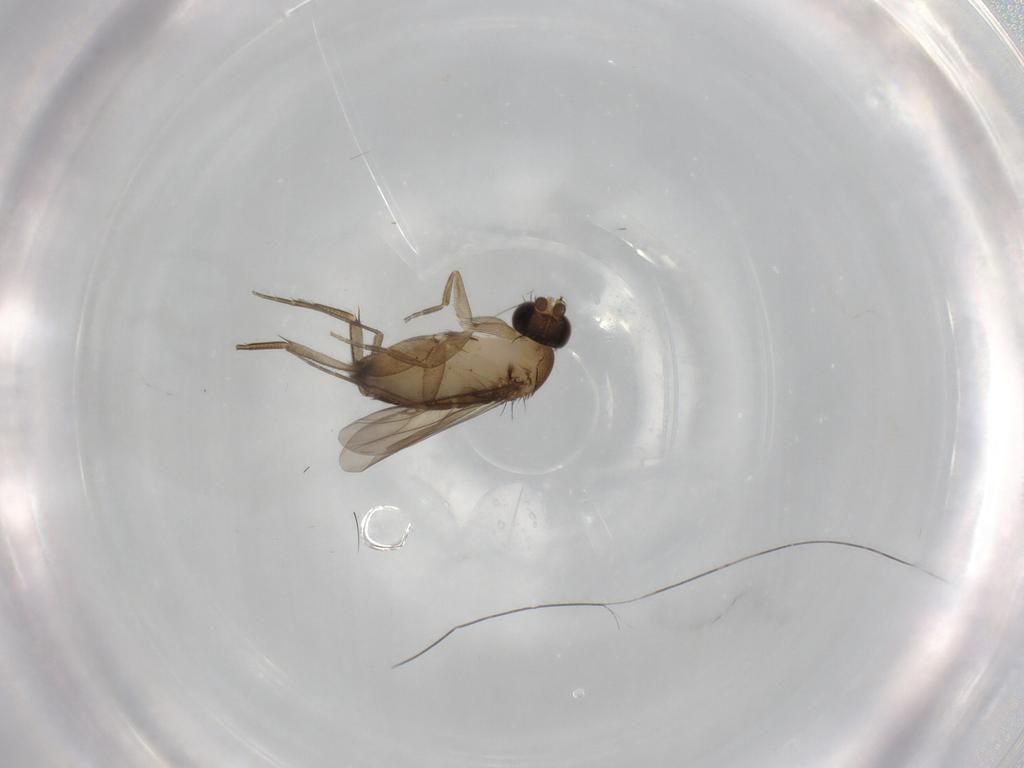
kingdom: Animalia
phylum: Arthropoda
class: Insecta
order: Diptera
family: Phoridae
